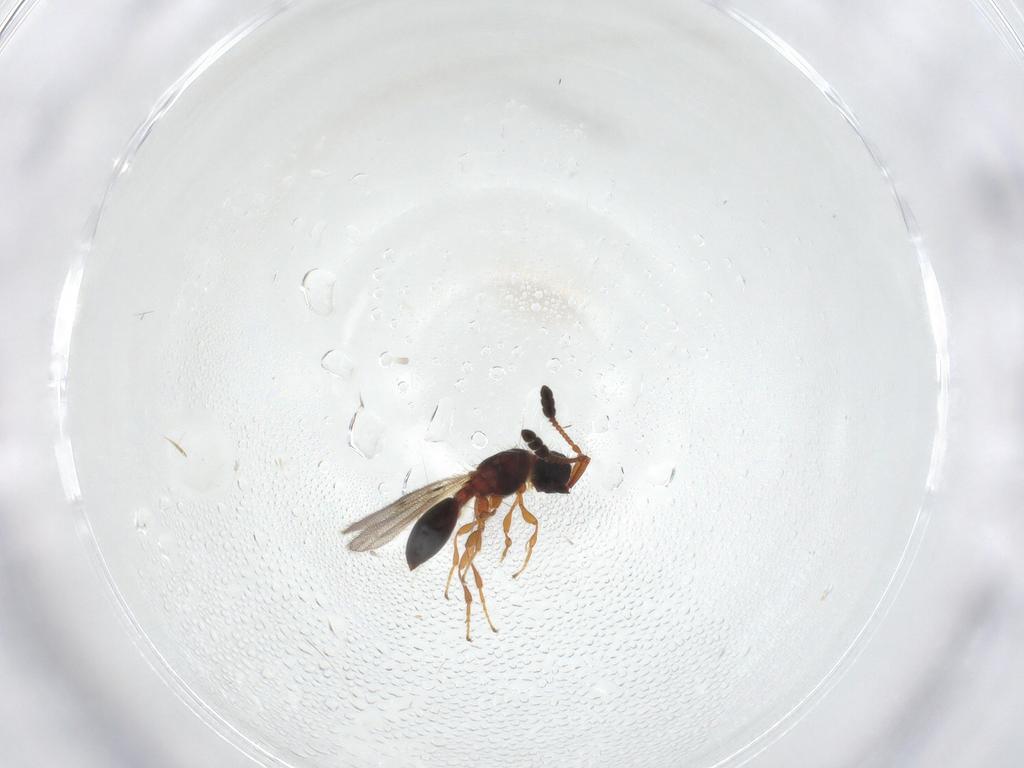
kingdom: Animalia
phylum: Arthropoda
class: Insecta
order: Hymenoptera
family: Diapriidae
